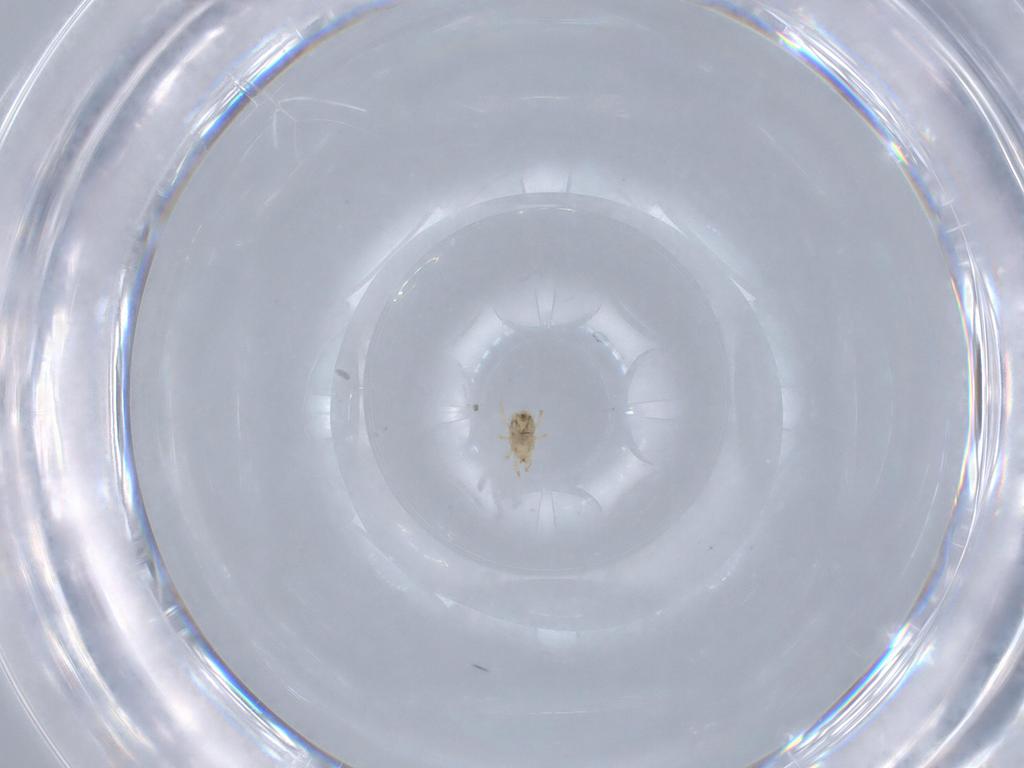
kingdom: Animalia
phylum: Arthropoda
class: Arachnida
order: Mesostigmata
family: Blattisociidae
